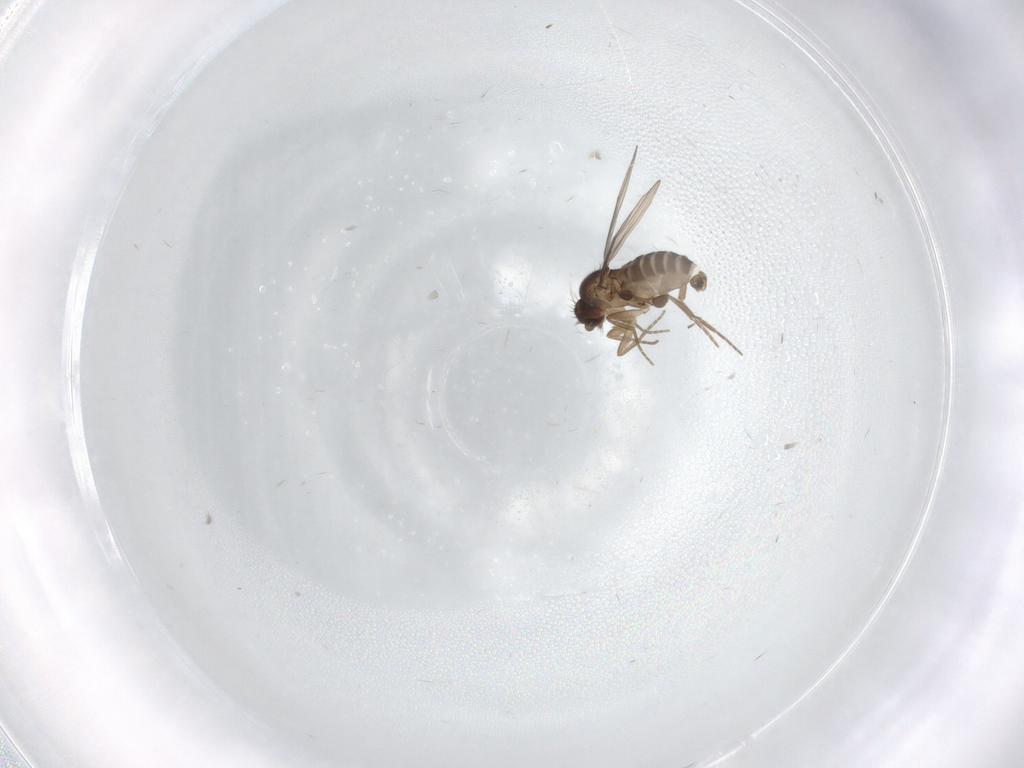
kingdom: Animalia
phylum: Arthropoda
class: Insecta
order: Diptera
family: Phoridae
